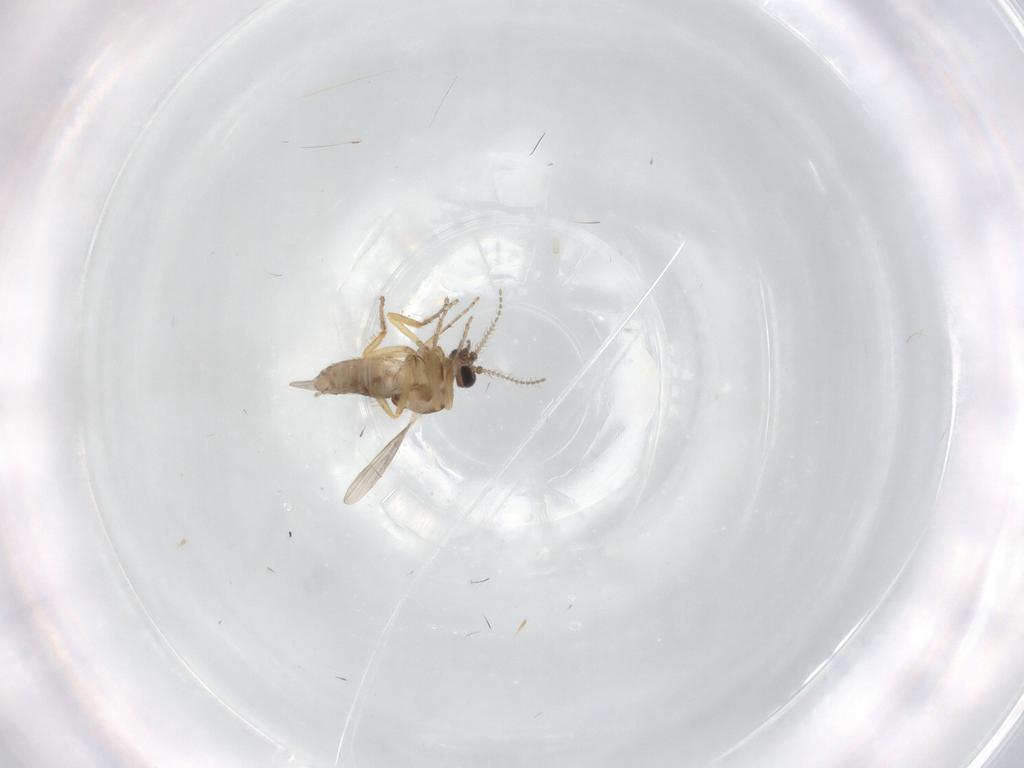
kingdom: Animalia
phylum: Arthropoda
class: Insecta
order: Diptera
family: Ceratopogonidae
